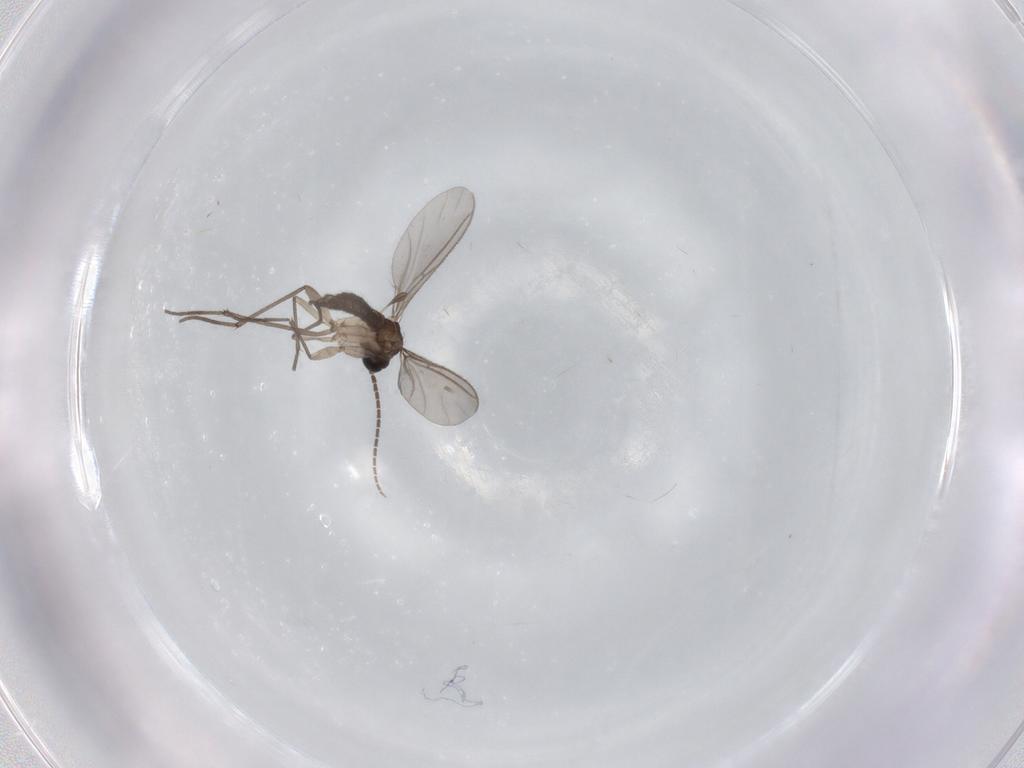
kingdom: Animalia
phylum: Arthropoda
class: Insecta
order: Diptera
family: Sciaridae
